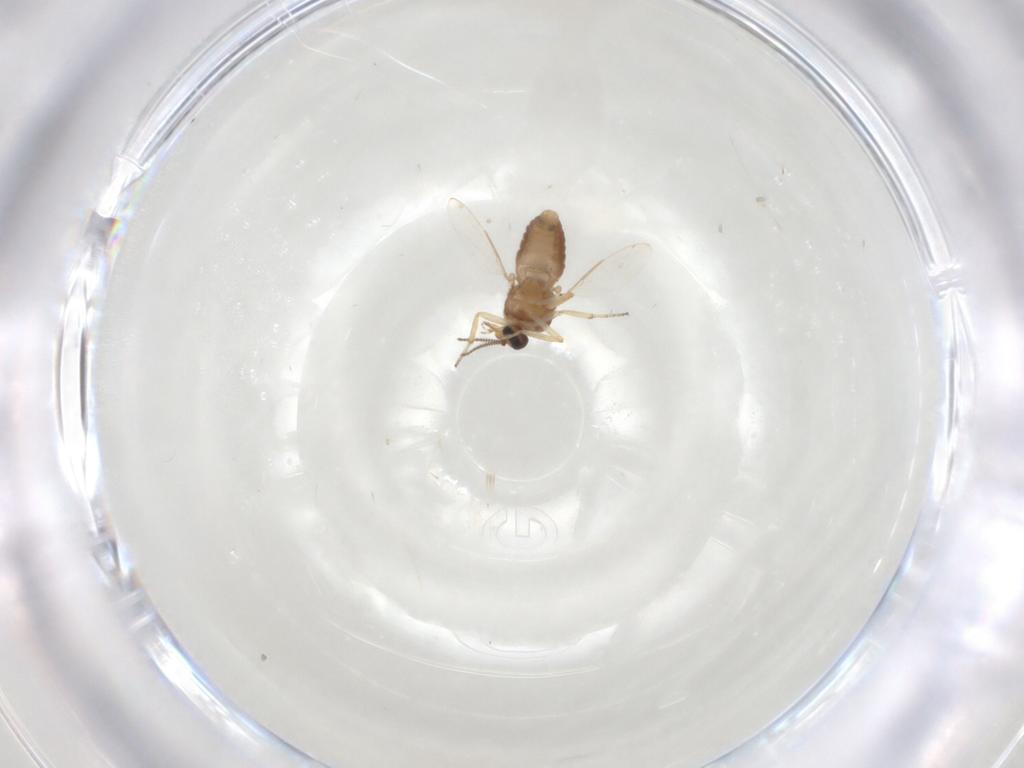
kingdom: Animalia
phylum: Arthropoda
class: Insecta
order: Diptera
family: Ceratopogonidae
